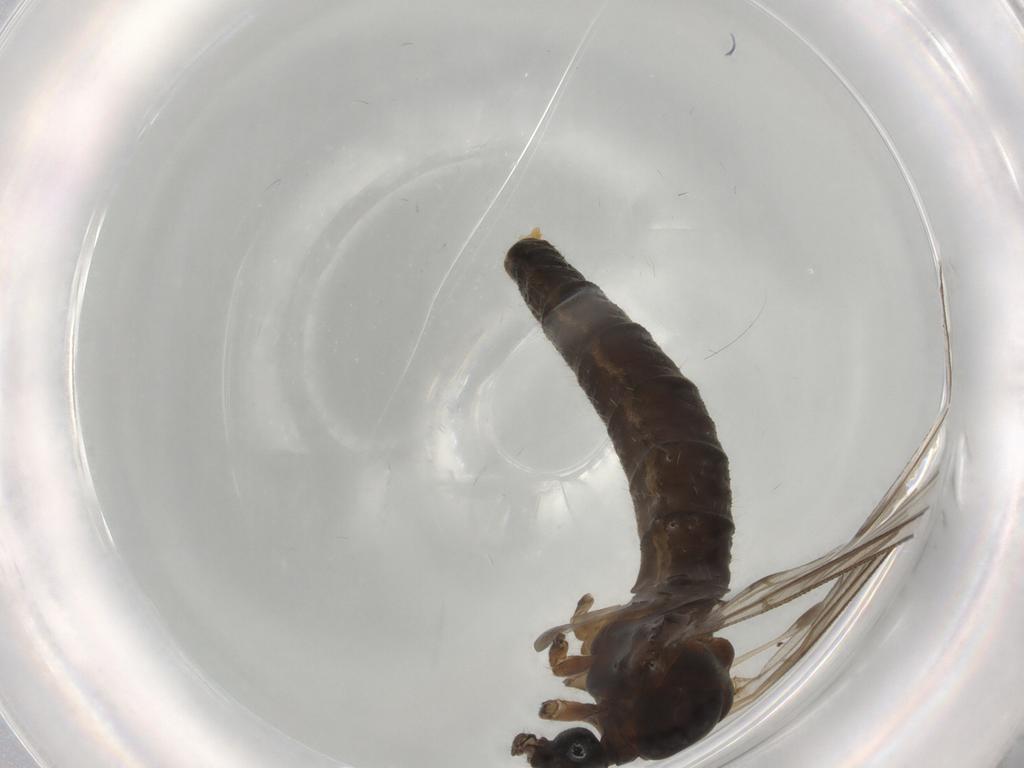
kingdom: Animalia
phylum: Arthropoda
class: Insecta
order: Diptera
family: Trichoceridae
